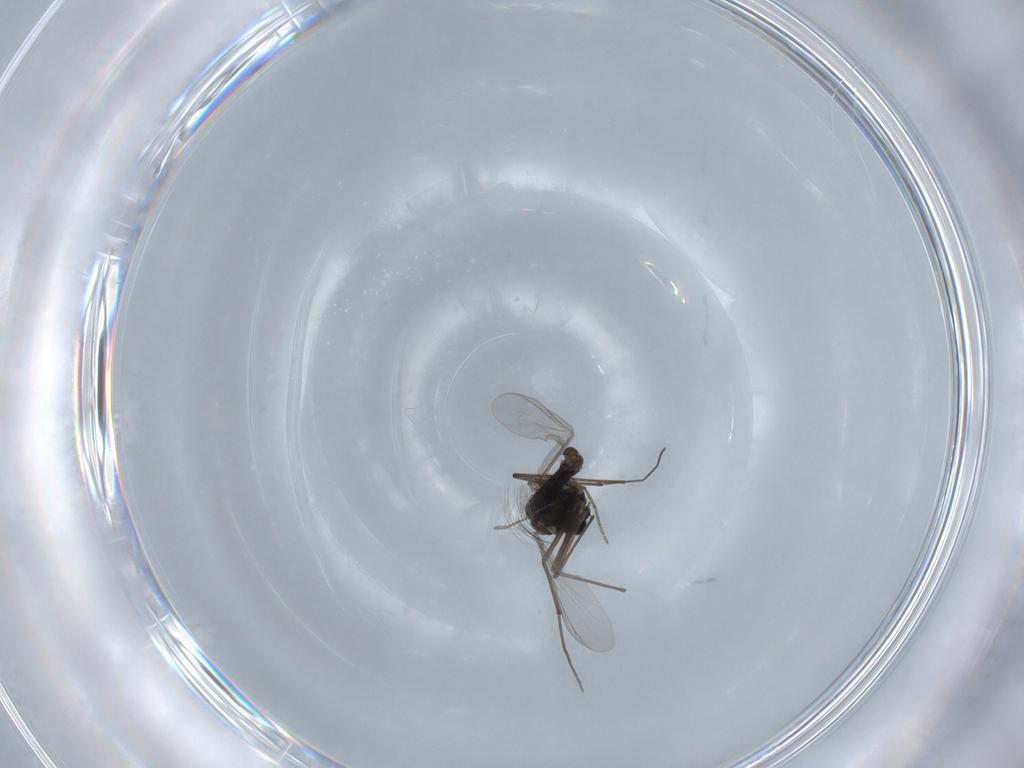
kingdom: Animalia
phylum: Arthropoda
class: Insecta
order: Diptera
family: Chironomidae
